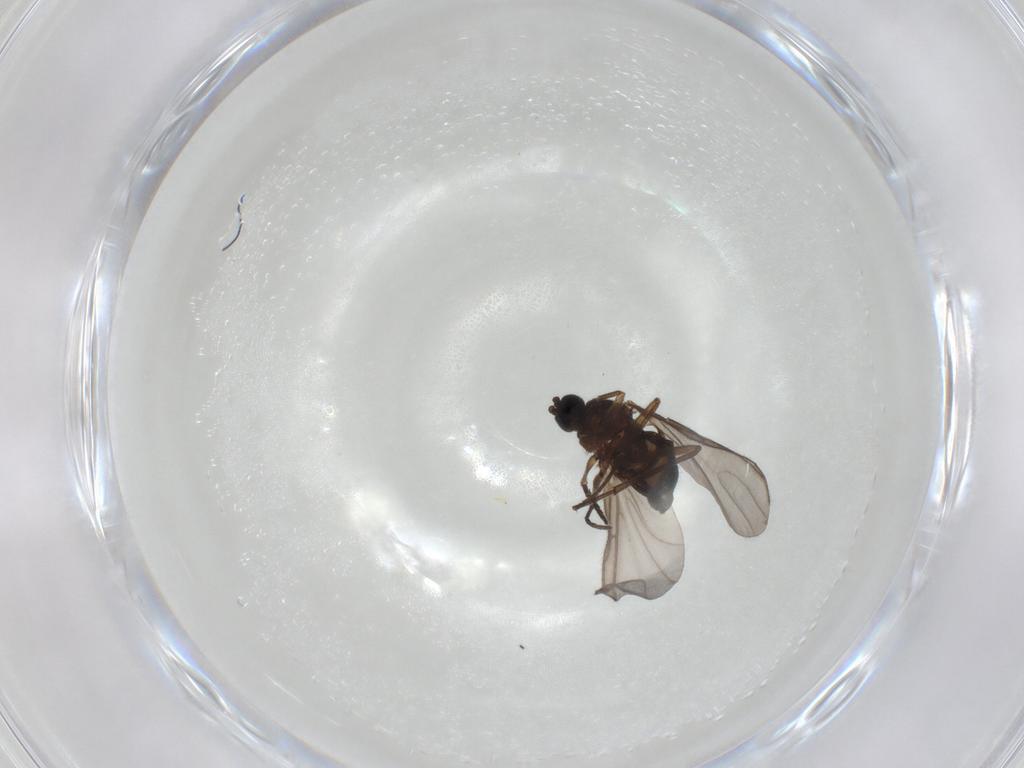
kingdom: Animalia
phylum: Arthropoda
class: Insecta
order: Diptera
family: Sciaridae
